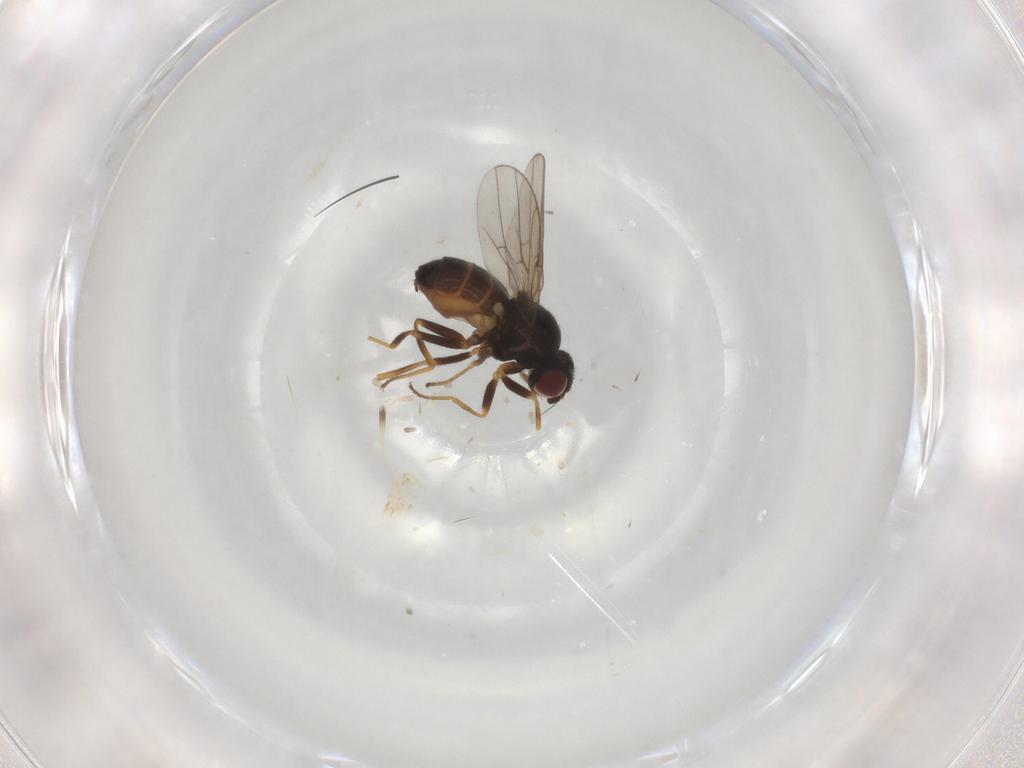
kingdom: Animalia
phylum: Arthropoda
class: Insecta
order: Diptera
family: Chloropidae
